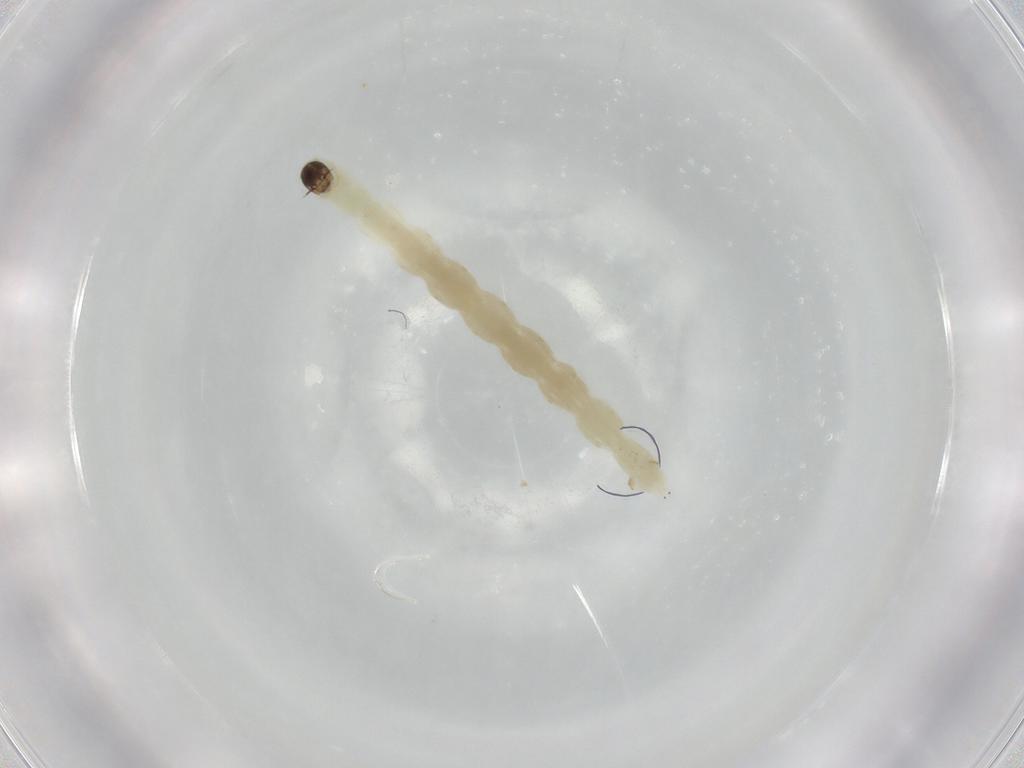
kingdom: Animalia
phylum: Arthropoda
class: Insecta
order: Diptera
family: Chironomidae
